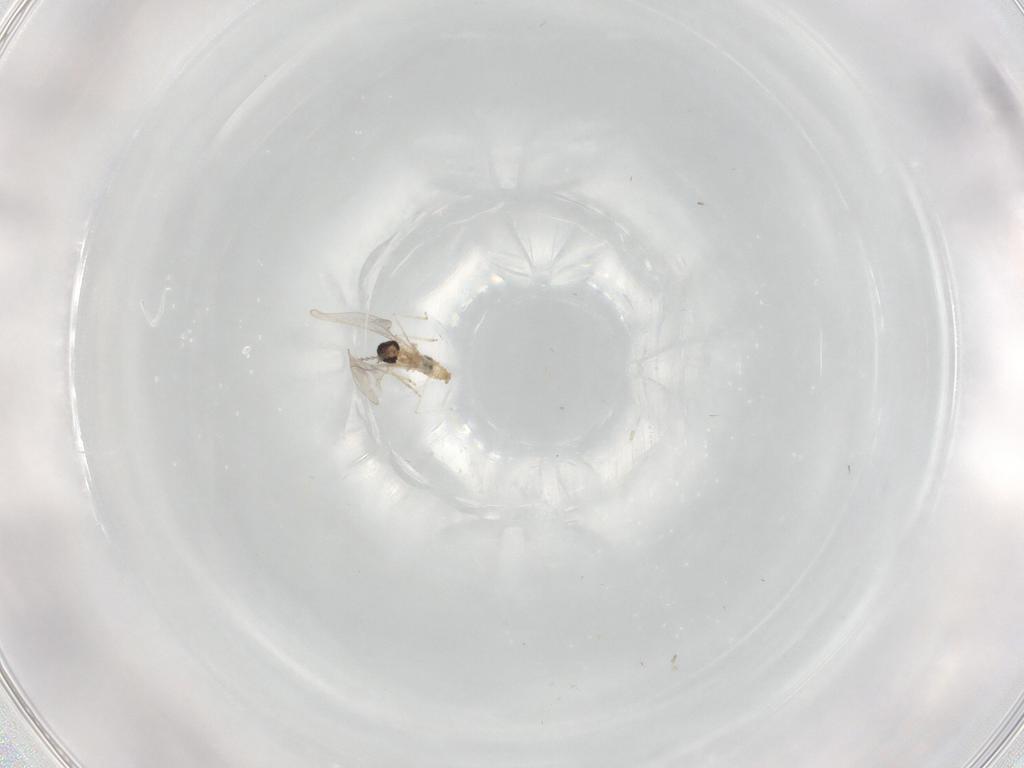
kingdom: Animalia
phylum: Arthropoda
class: Insecta
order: Diptera
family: Cecidomyiidae
